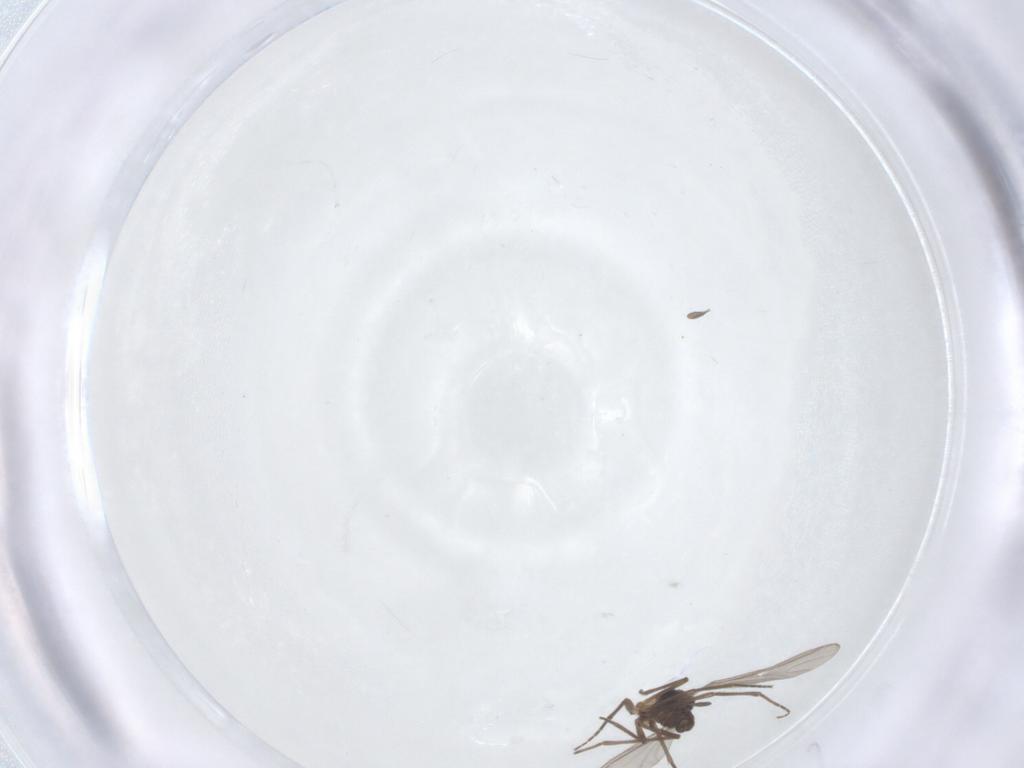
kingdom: Animalia
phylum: Arthropoda
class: Insecta
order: Diptera
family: Sciaridae
